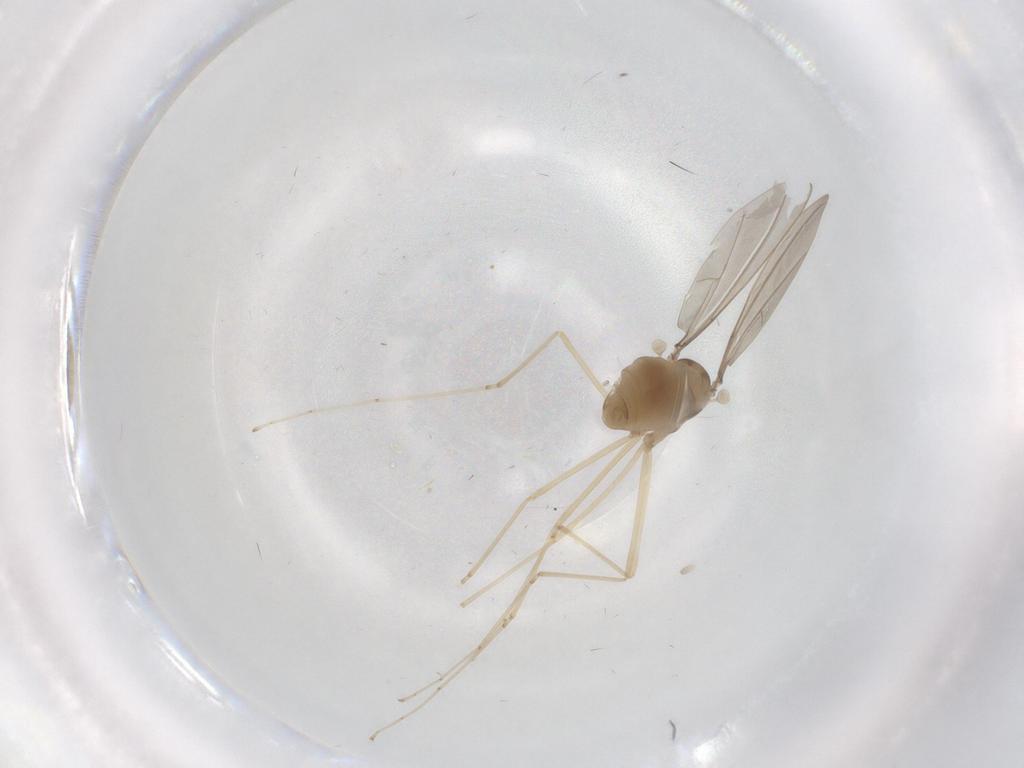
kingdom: Animalia
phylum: Arthropoda
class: Insecta
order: Diptera
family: Cecidomyiidae
